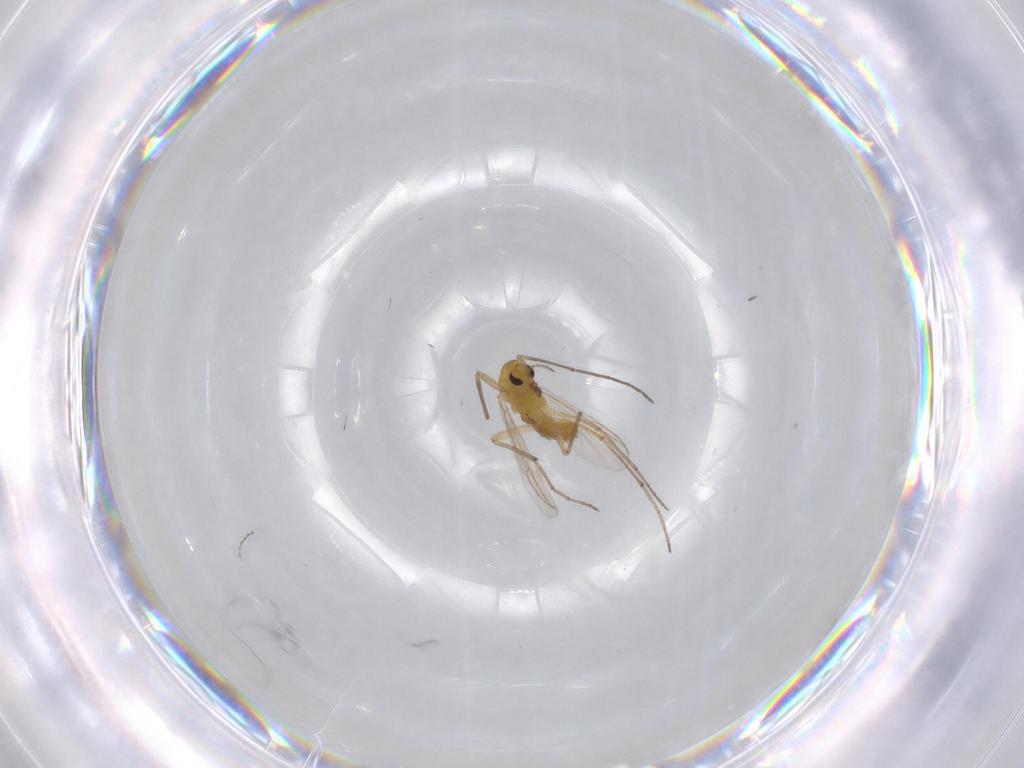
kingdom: Animalia
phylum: Arthropoda
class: Insecta
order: Diptera
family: Chironomidae
